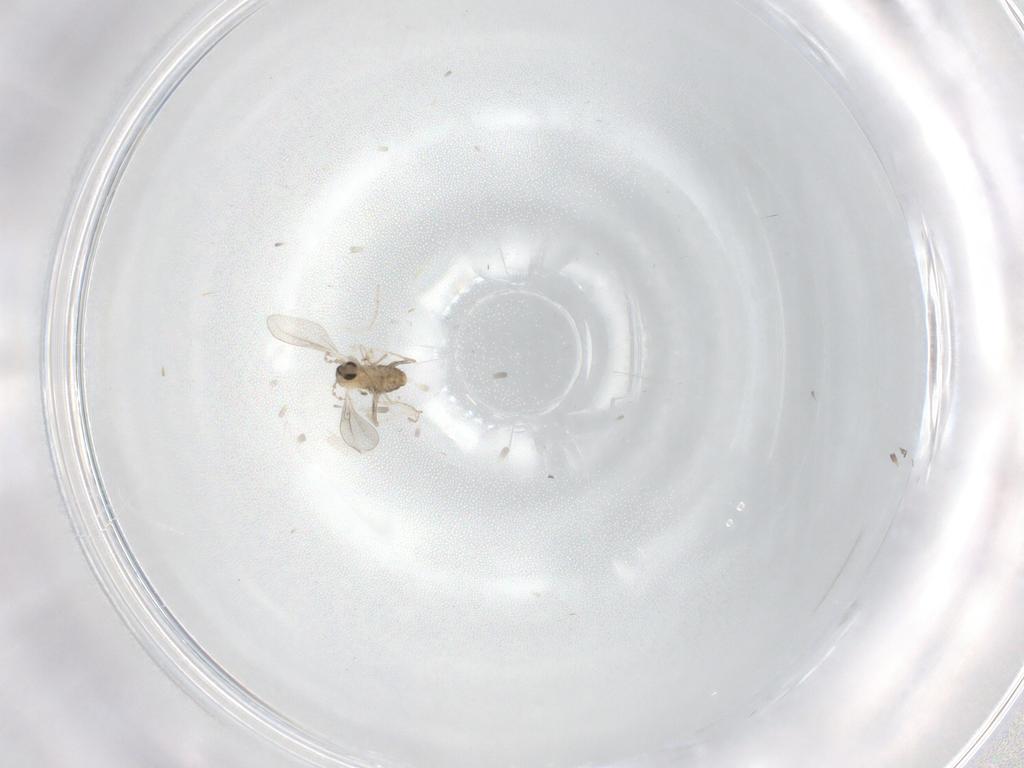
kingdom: Animalia
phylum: Arthropoda
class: Insecta
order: Diptera
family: Cecidomyiidae
